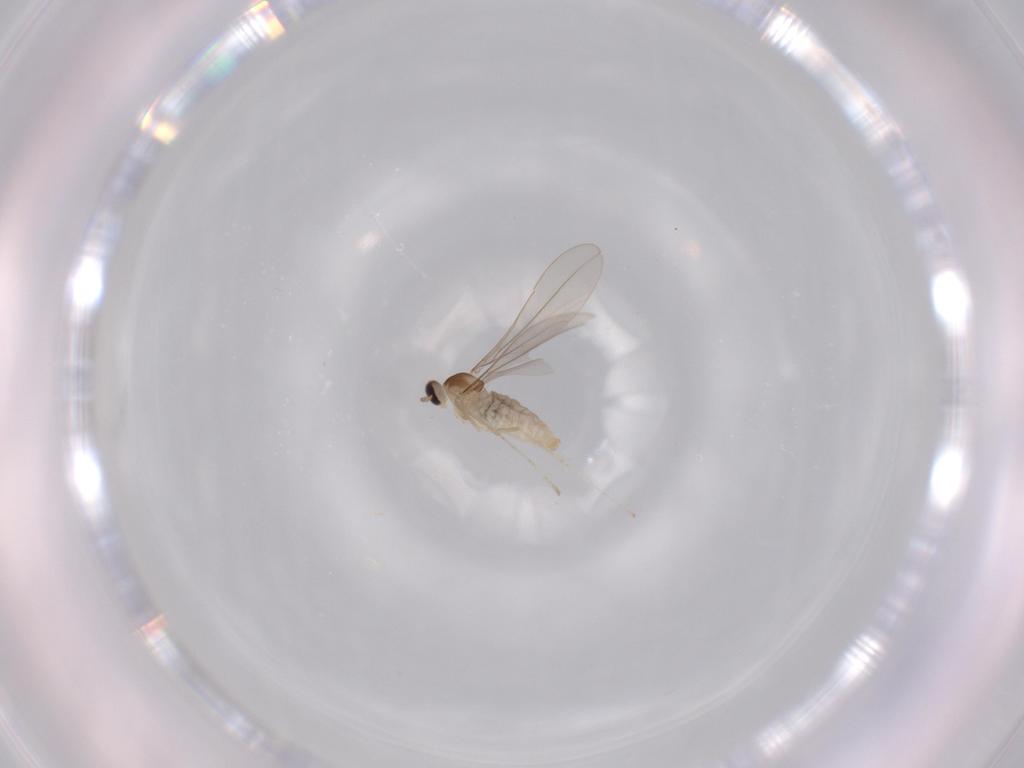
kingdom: Animalia
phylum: Arthropoda
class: Insecta
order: Diptera
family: Cecidomyiidae
